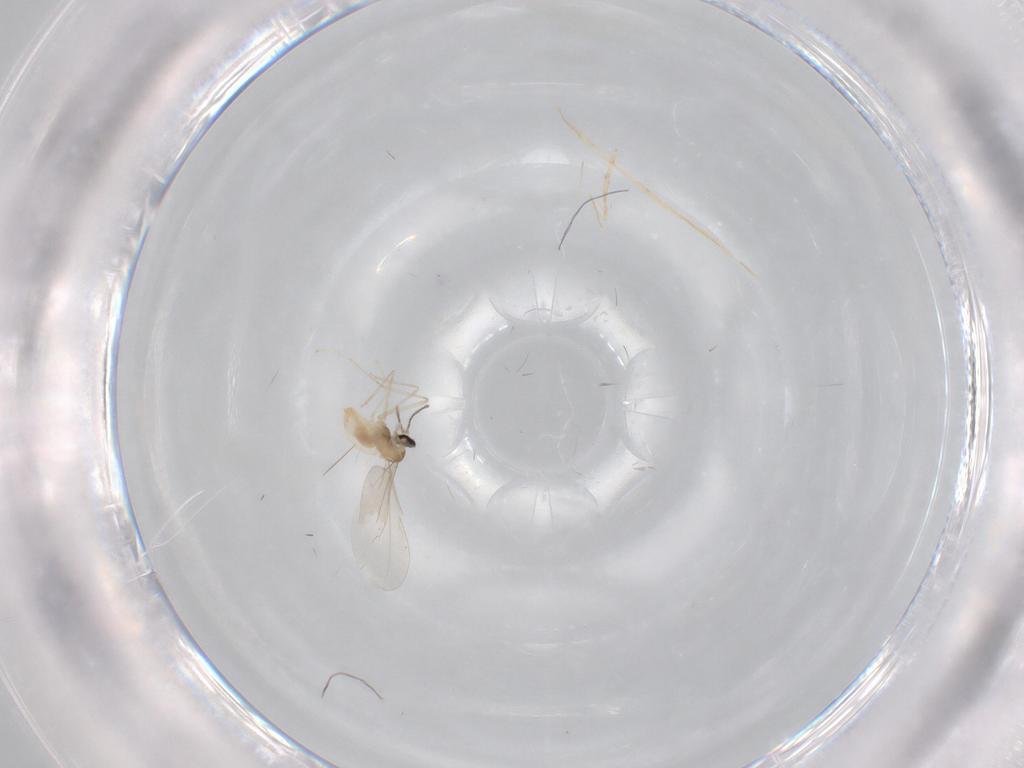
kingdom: Animalia
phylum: Arthropoda
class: Insecta
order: Diptera
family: Cecidomyiidae
